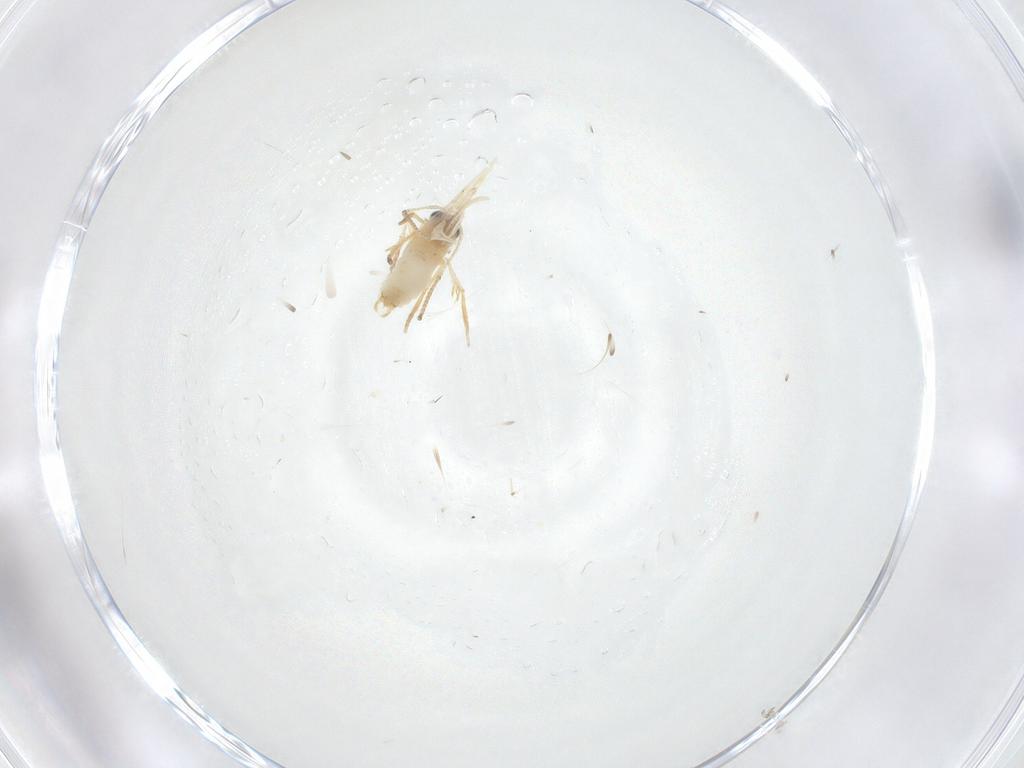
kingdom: Animalia
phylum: Arthropoda
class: Insecta
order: Lepidoptera
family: Nepticulidae
